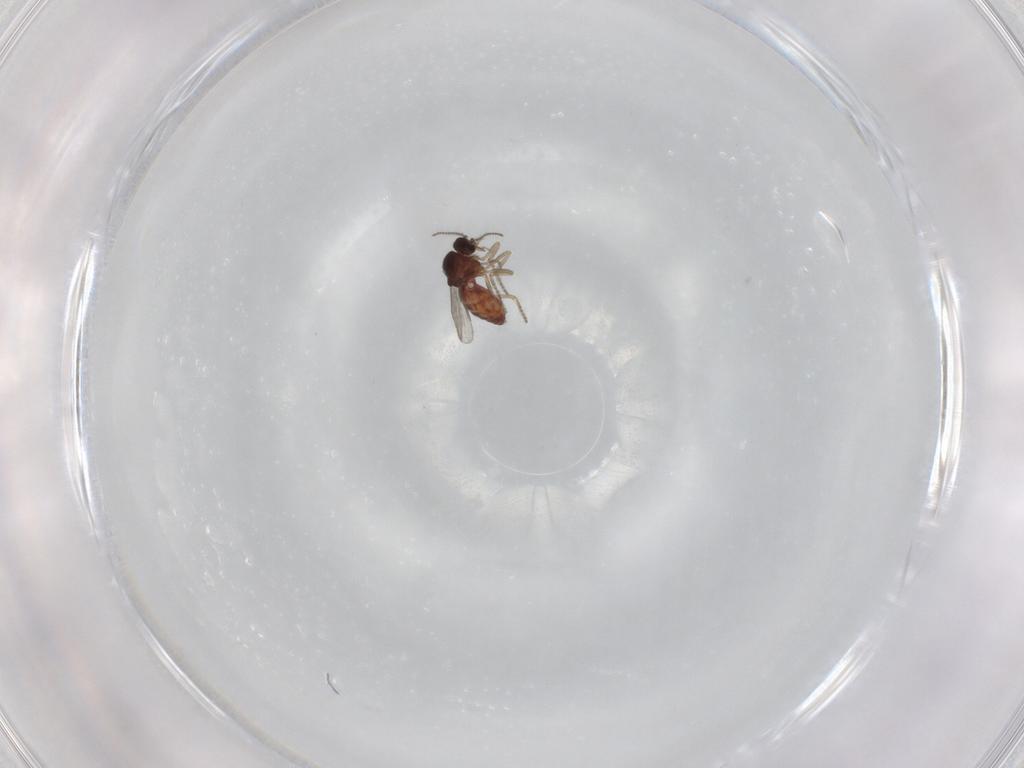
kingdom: Animalia
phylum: Arthropoda
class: Insecta
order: Diptera
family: Ceratopogonidae
